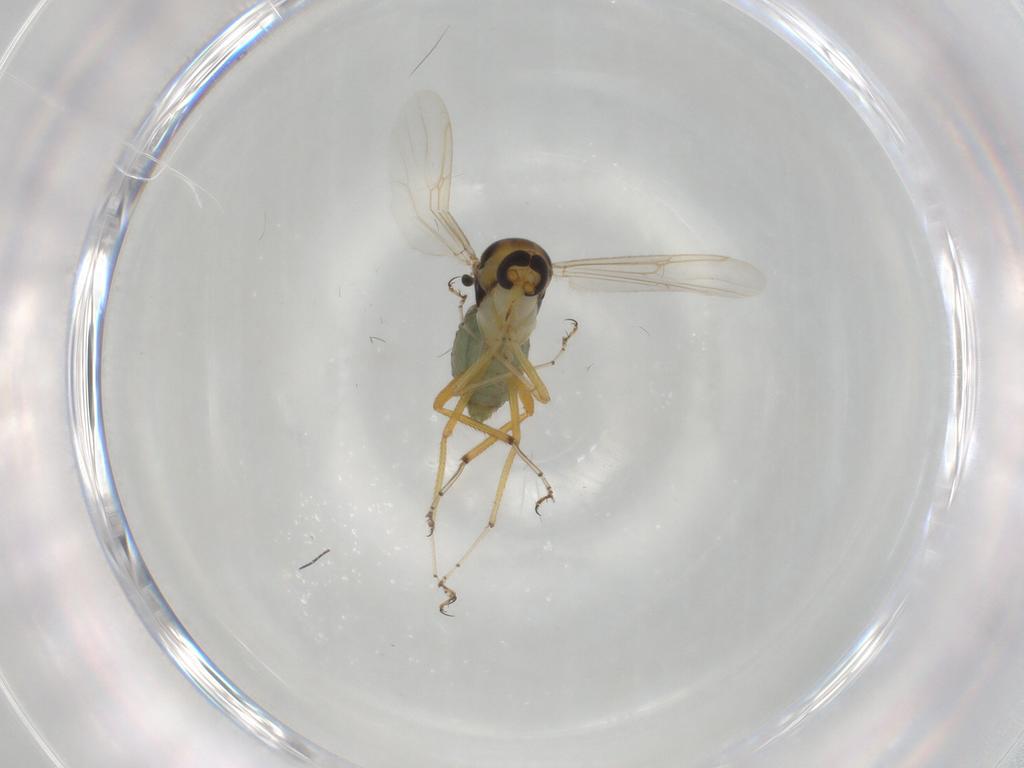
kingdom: Animalia
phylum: Arthropoda
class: Insecta
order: Diptera
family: Ceratopogonidae
